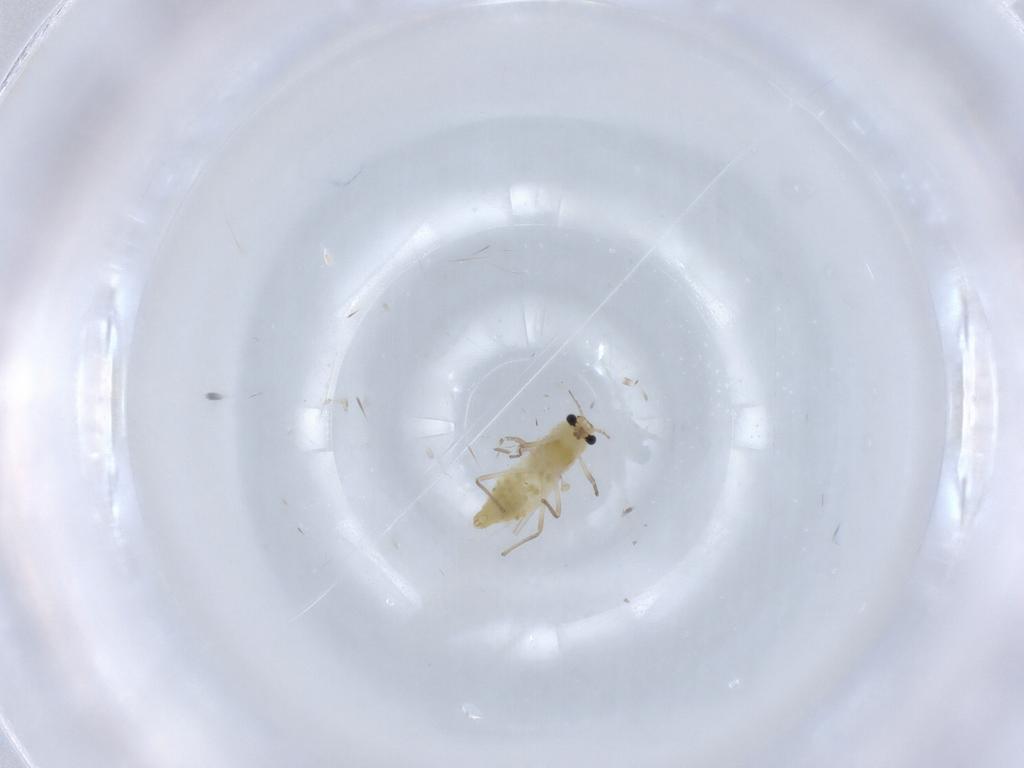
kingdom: Animalia
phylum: Arthropoda
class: Insecta
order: Diptera
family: Chironomidae
